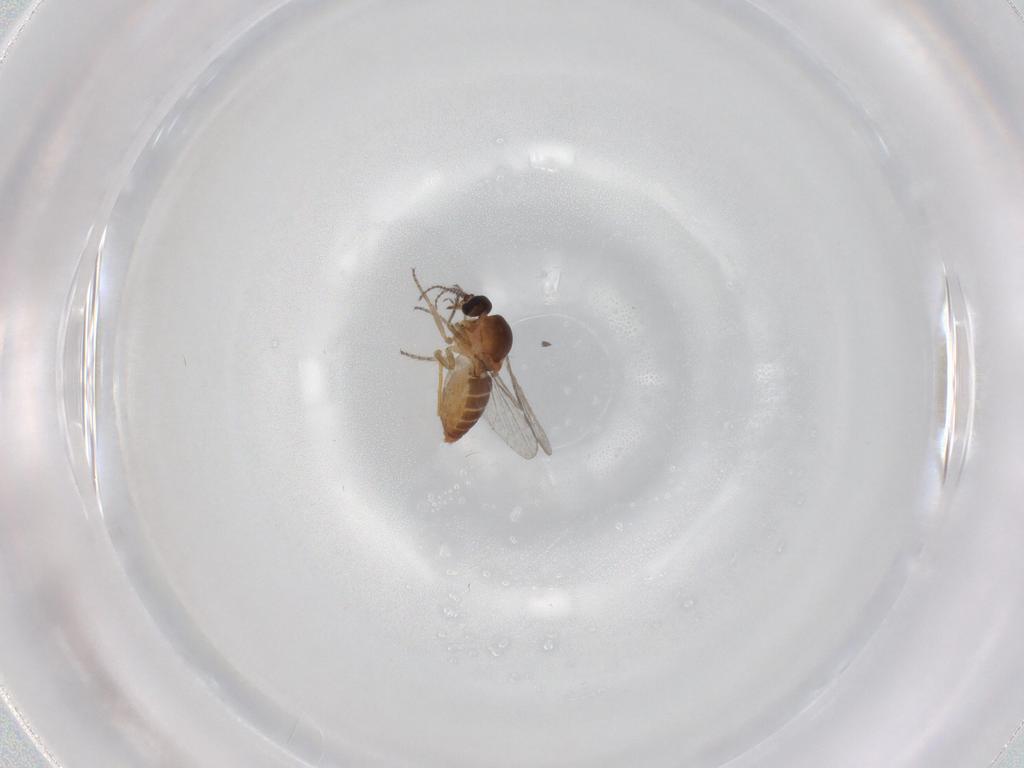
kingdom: Animalia
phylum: Arthropoda
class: Insecta
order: Diptera
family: Ceratopogonidae
